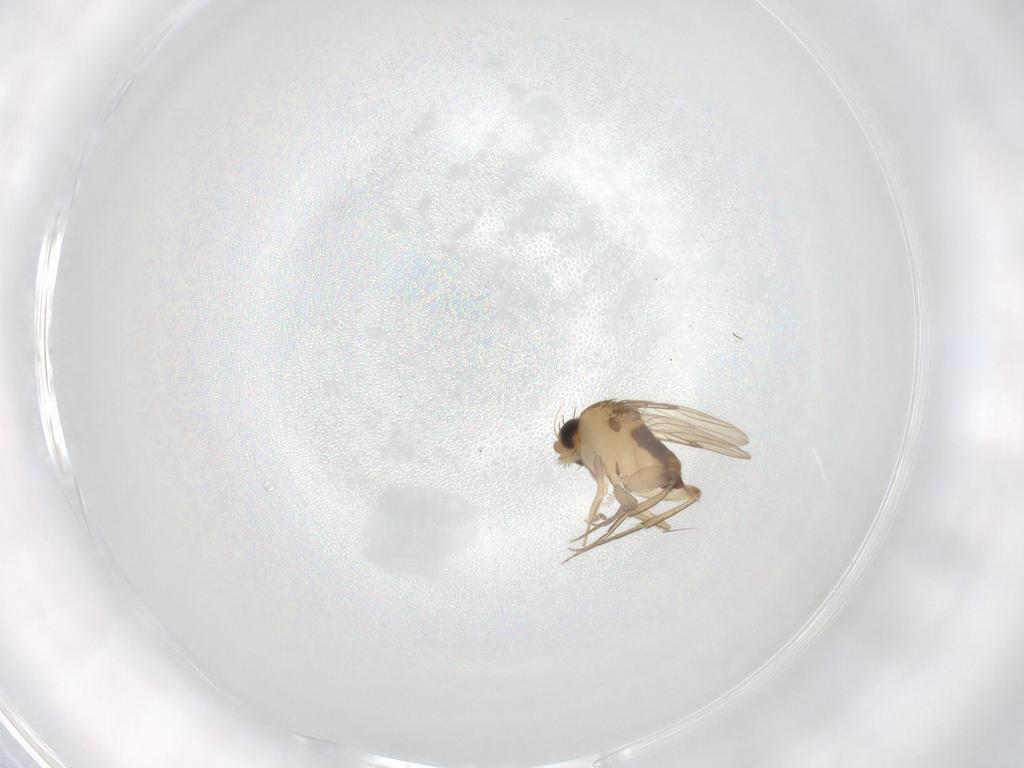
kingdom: Animalia
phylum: Arthropoda
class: Insecta
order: Diptera
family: Phoridae
